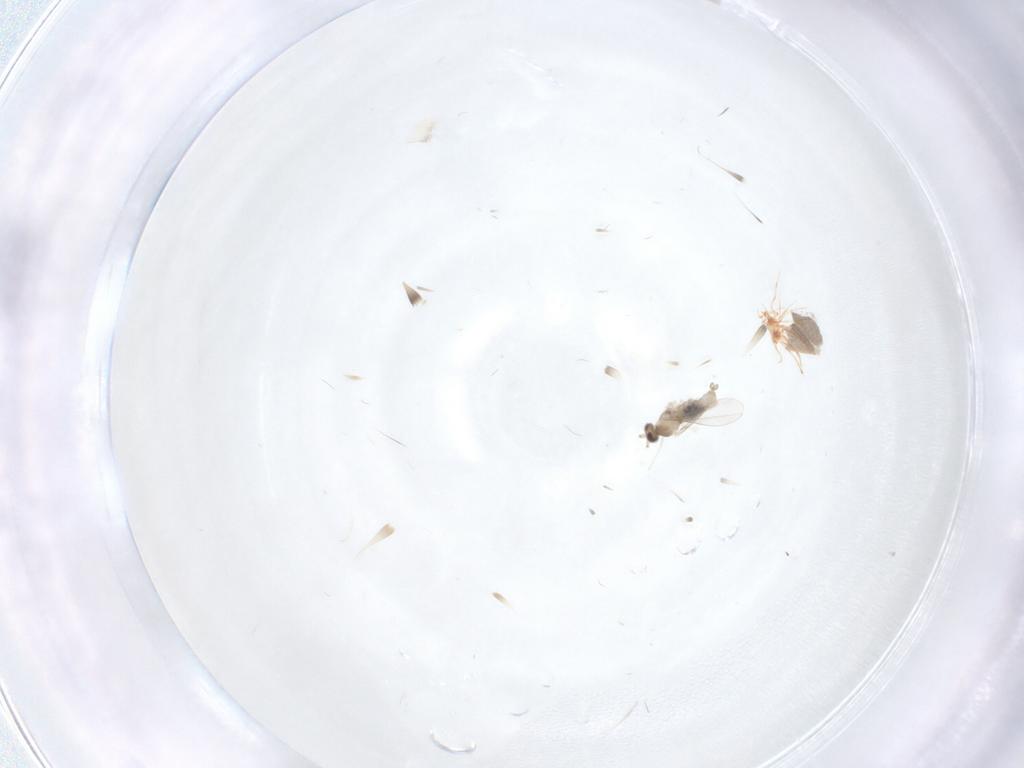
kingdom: Animalia
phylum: Arthropoda
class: Insecta
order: Diptera
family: Cecidomyiidae
